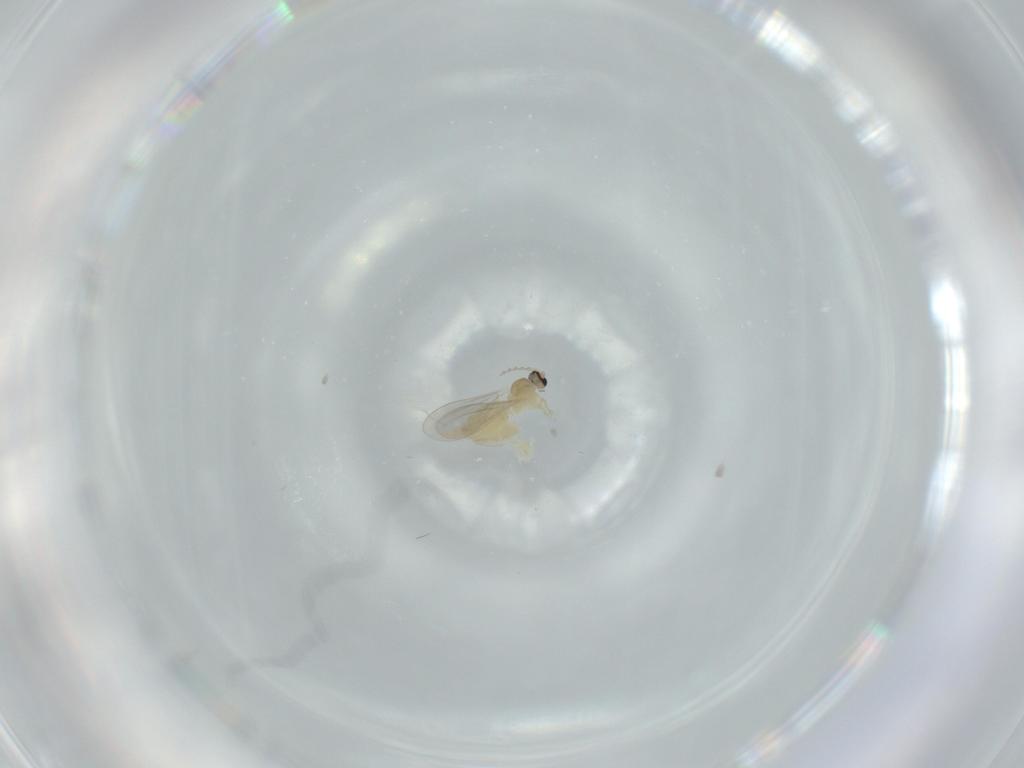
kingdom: Animalia
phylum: Arthropoda
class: Insecta
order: Diptera
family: Cecidomyiidae
